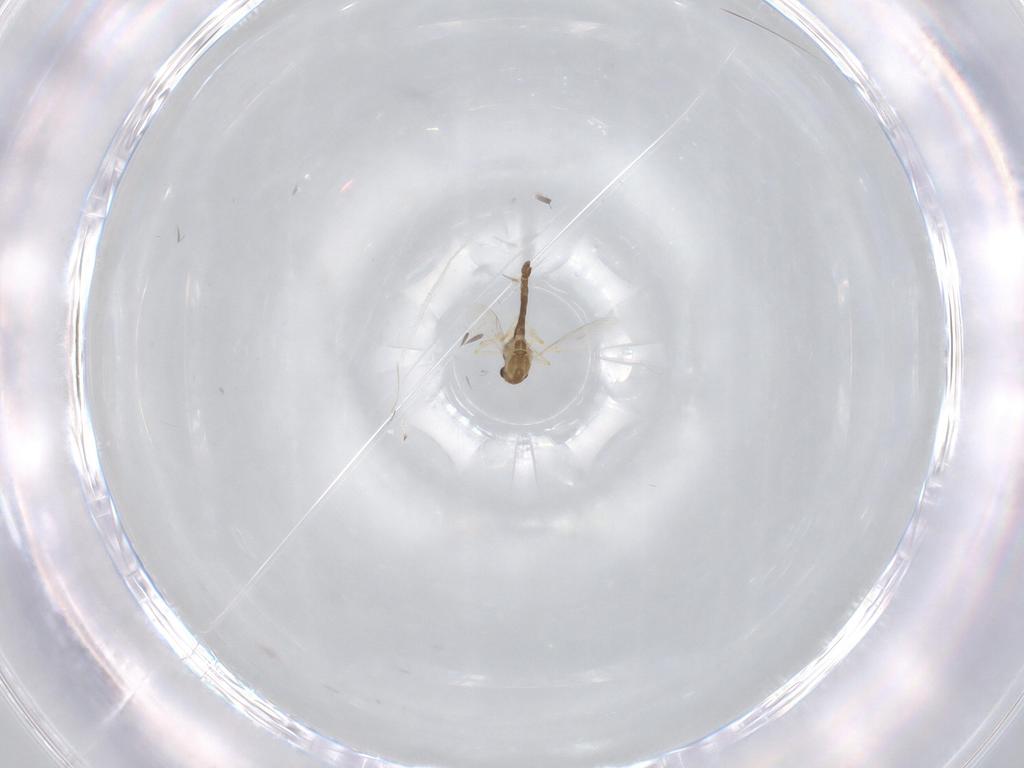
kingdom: Animalia
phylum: Arthropoda
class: Insecta
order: Diptera
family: Chironomidae
